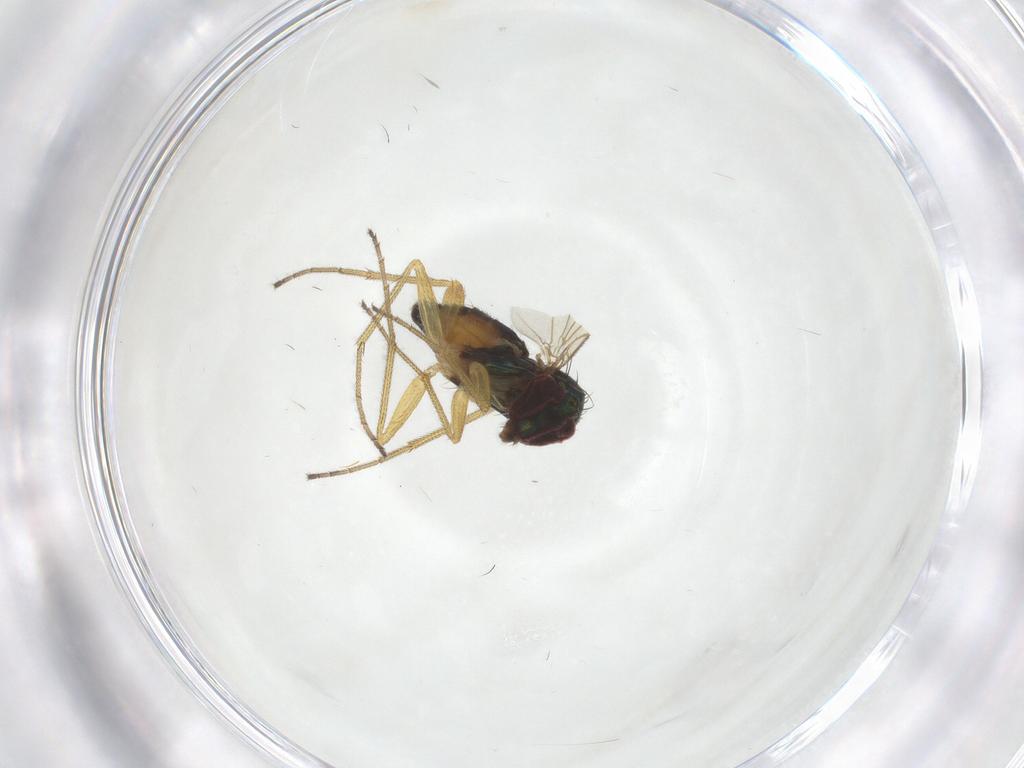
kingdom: Animalia
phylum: Arthropoda
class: Insecta
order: Diptera
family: Dolichopodidae
